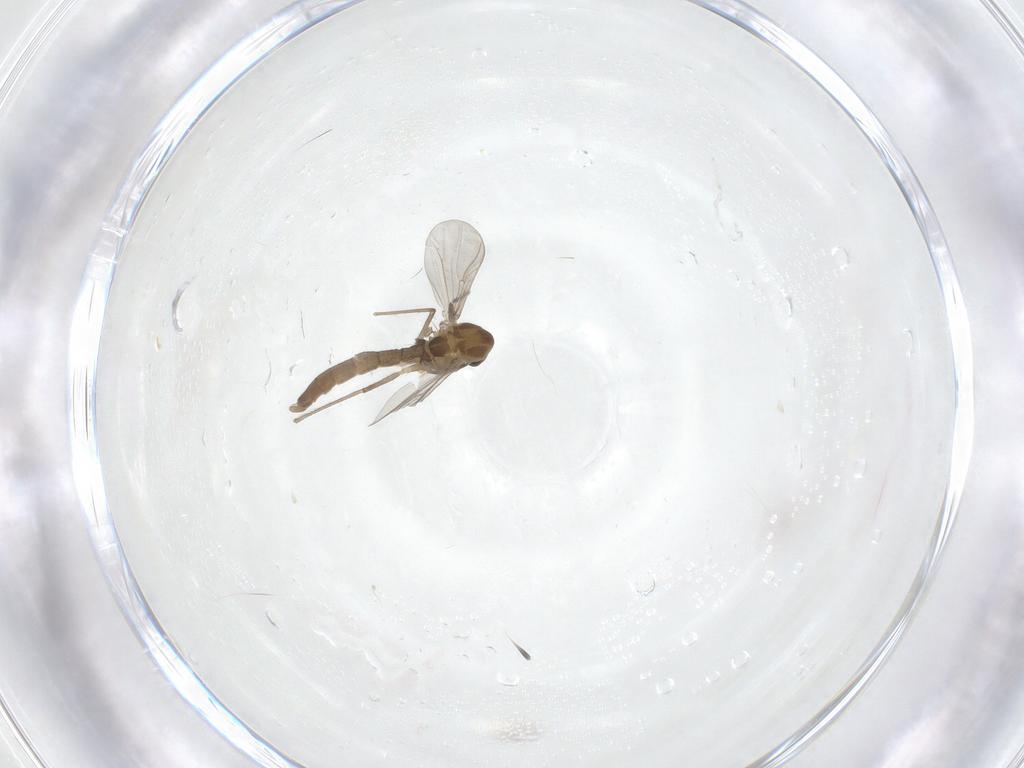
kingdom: Animalia
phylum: Arthropoda
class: Insecta
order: Diptera
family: Chironomidae
